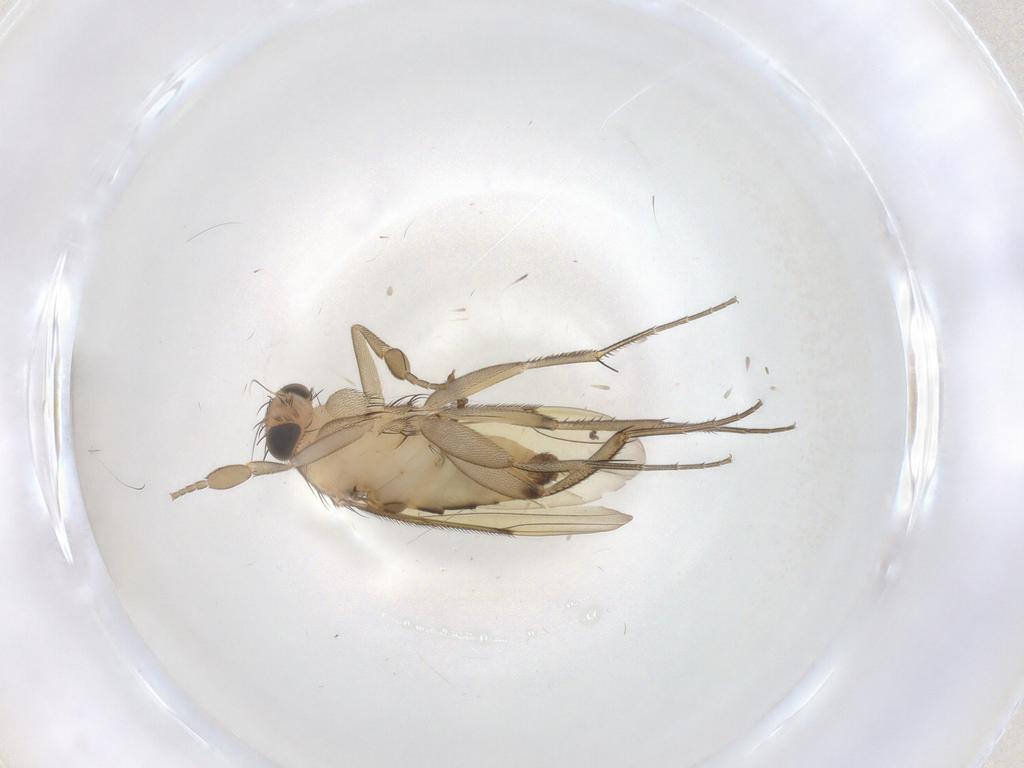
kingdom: Animalia
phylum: Arthropoda
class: Insecta
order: Diptera
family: Phoridae
